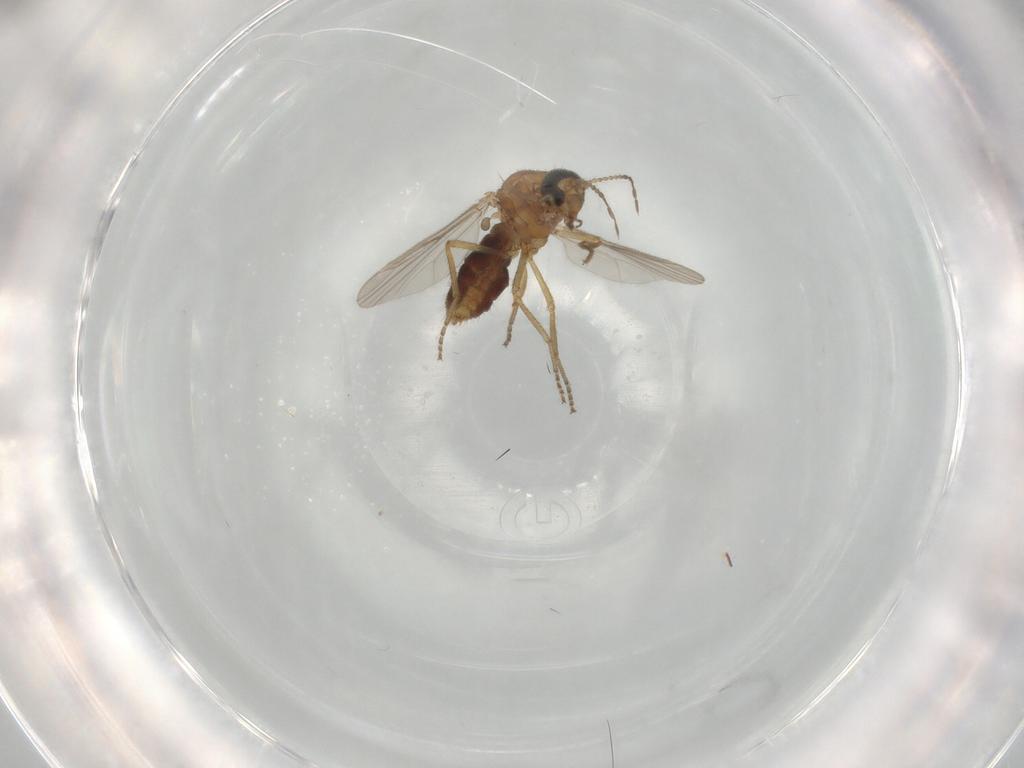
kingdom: Animalia
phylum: Arthropoda
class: Insecta
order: Diptera
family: Ceratopogonidae
